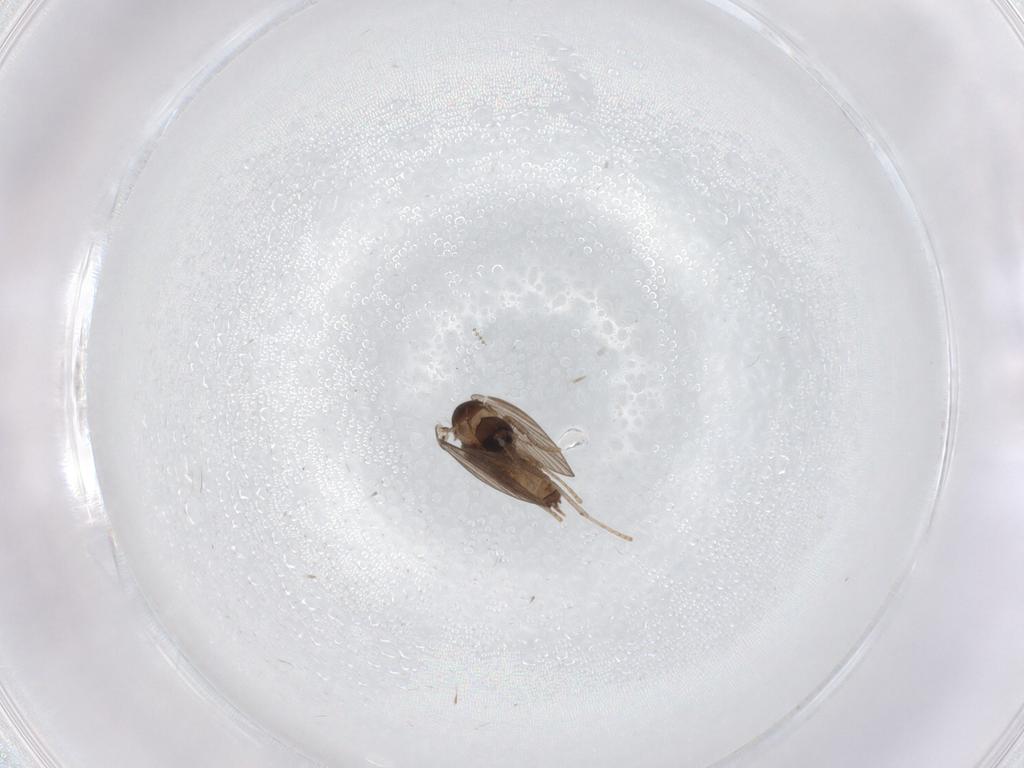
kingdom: Animalia
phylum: Arthropoda
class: Insecta
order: Diptera
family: Psychodidae
